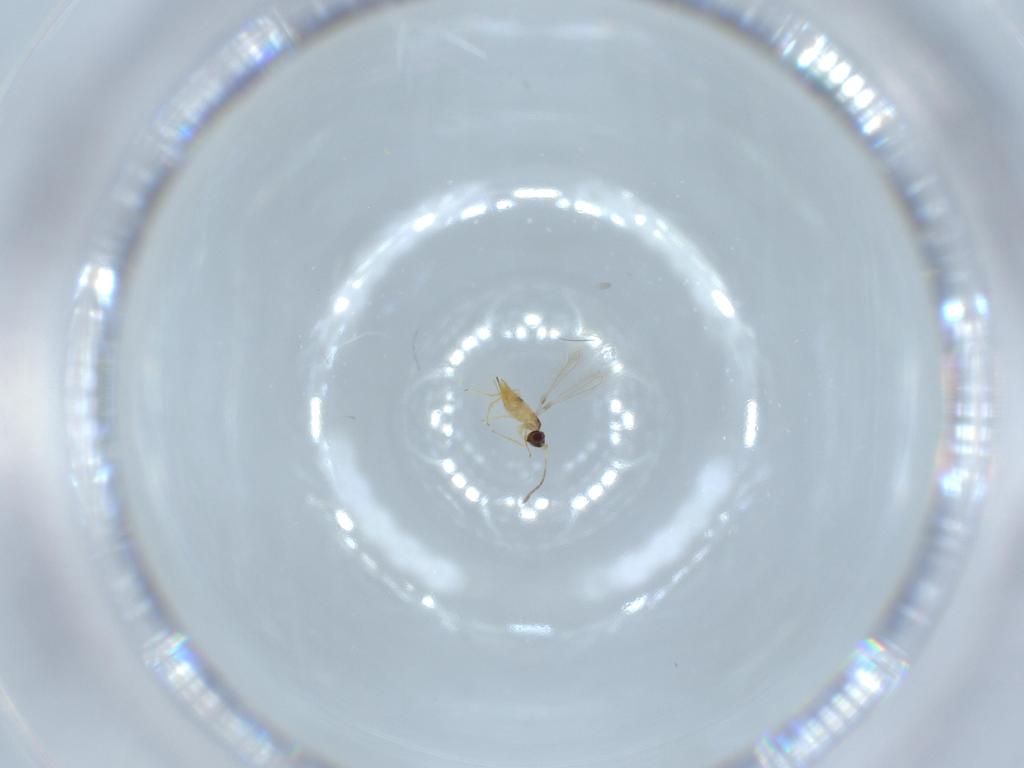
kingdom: Animalia
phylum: Arthropoda
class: Insecta
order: Hymenoptera
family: Mymaridae
